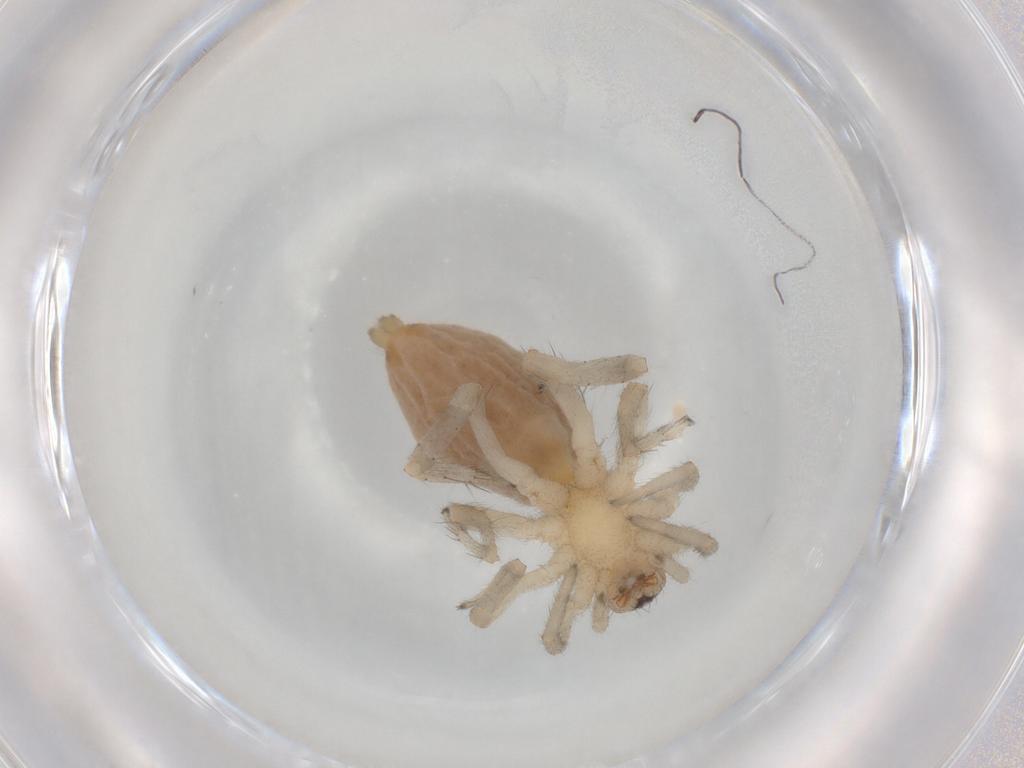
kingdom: Animalia
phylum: Arthropoda
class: Arachnida
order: Araneae
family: Clubionidae
